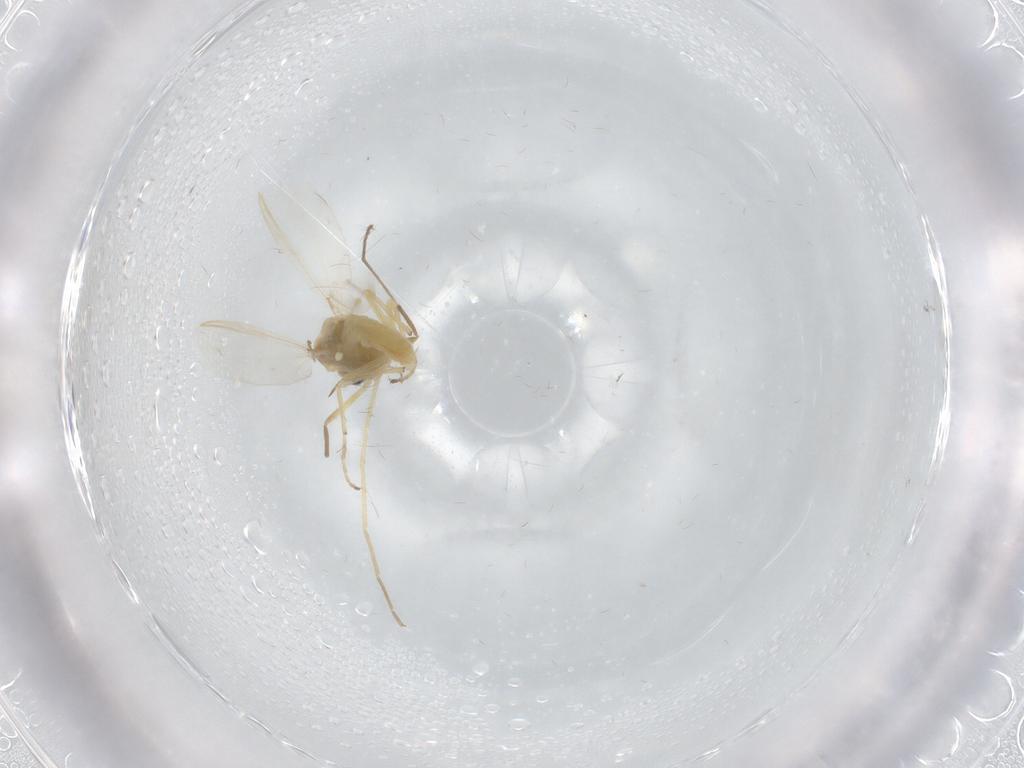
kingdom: Animalia
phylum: Arthropoda
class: Insecta
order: Diptera
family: Chironomidae
